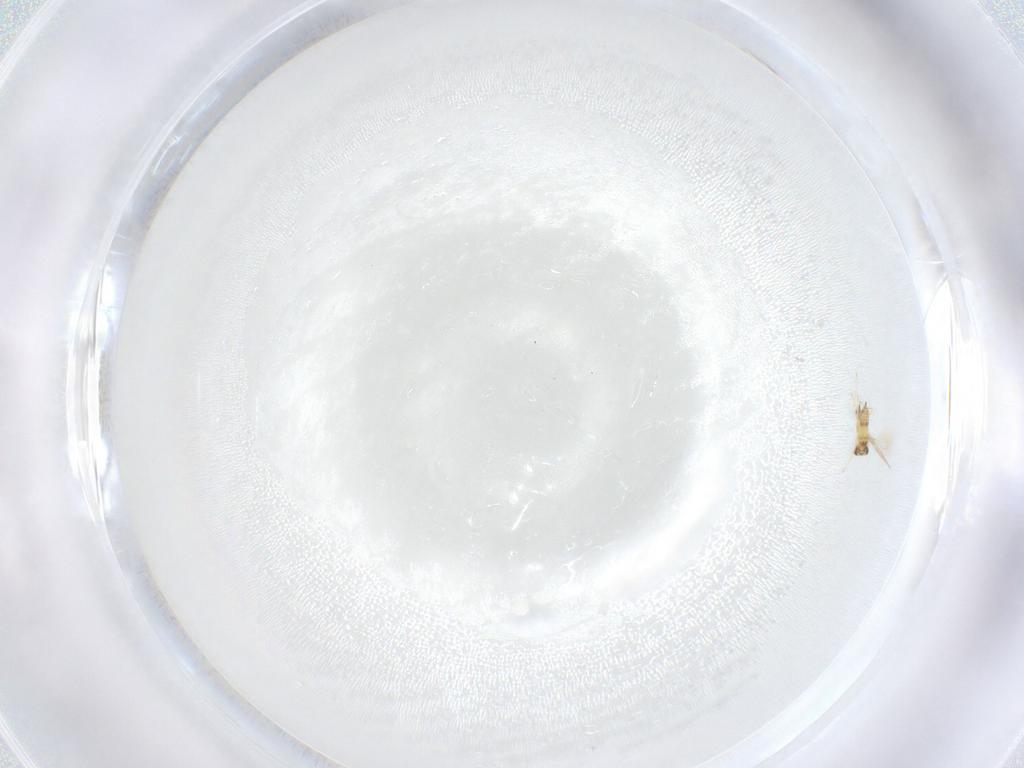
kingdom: Animalia
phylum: Arthropoda
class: Insecta
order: Hymenoptera
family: Mymaridae
